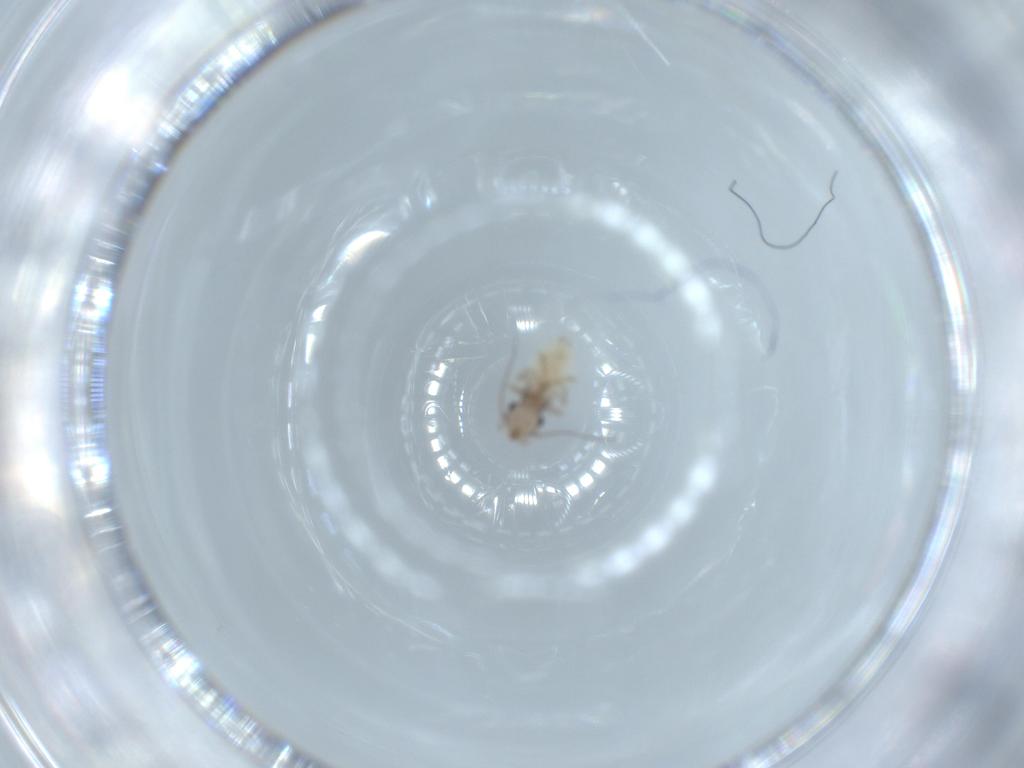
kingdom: Animalia
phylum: Arthropoda
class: Insecta
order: Psocodea
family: Lepidopsocidae
